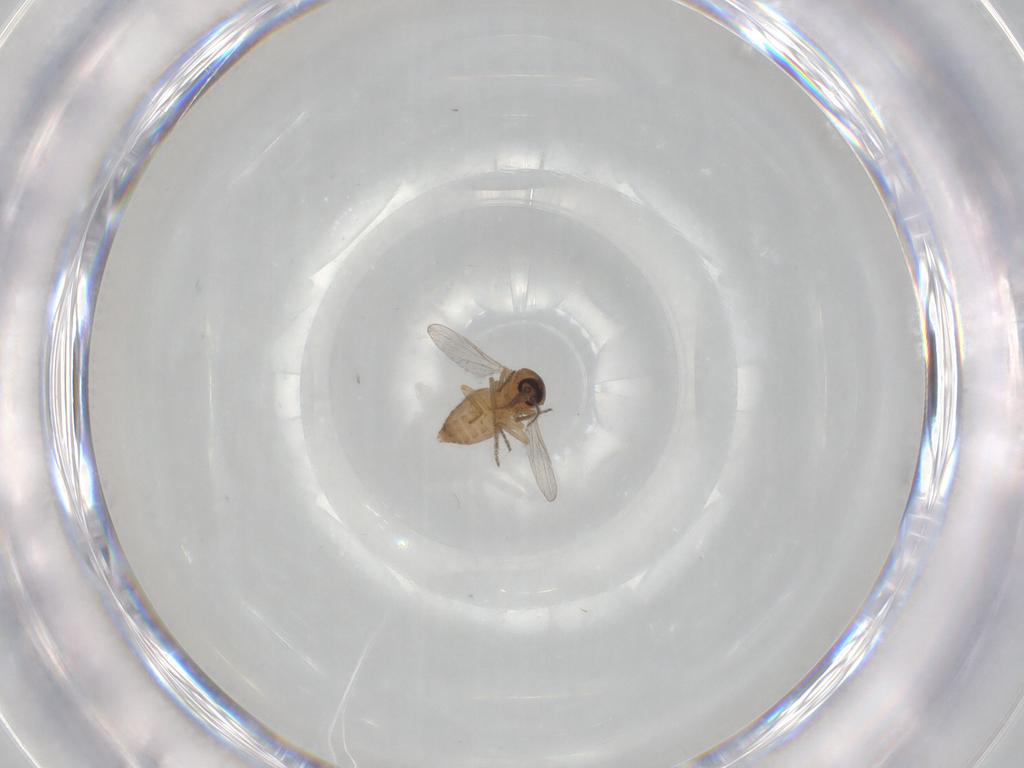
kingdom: Animalia
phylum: Arthropoda
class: Insecta
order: Diptera
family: Ceratopogonidae
